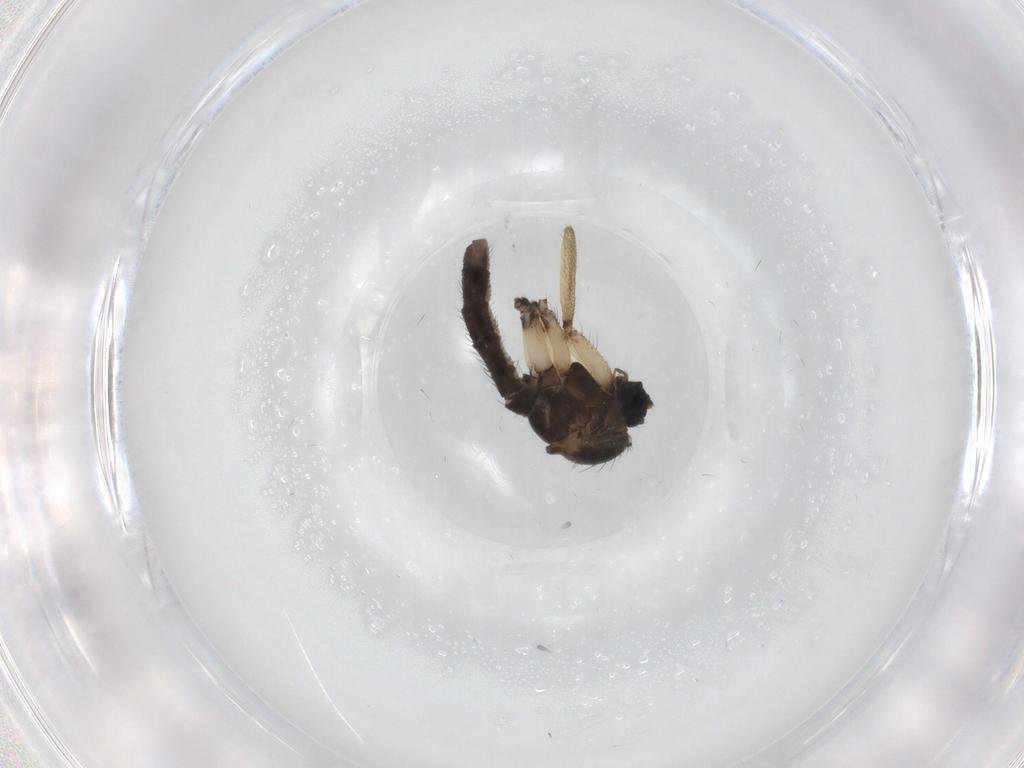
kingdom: Animalia
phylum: Arthropoda
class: Insecta
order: Diptera
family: Sciaridae
